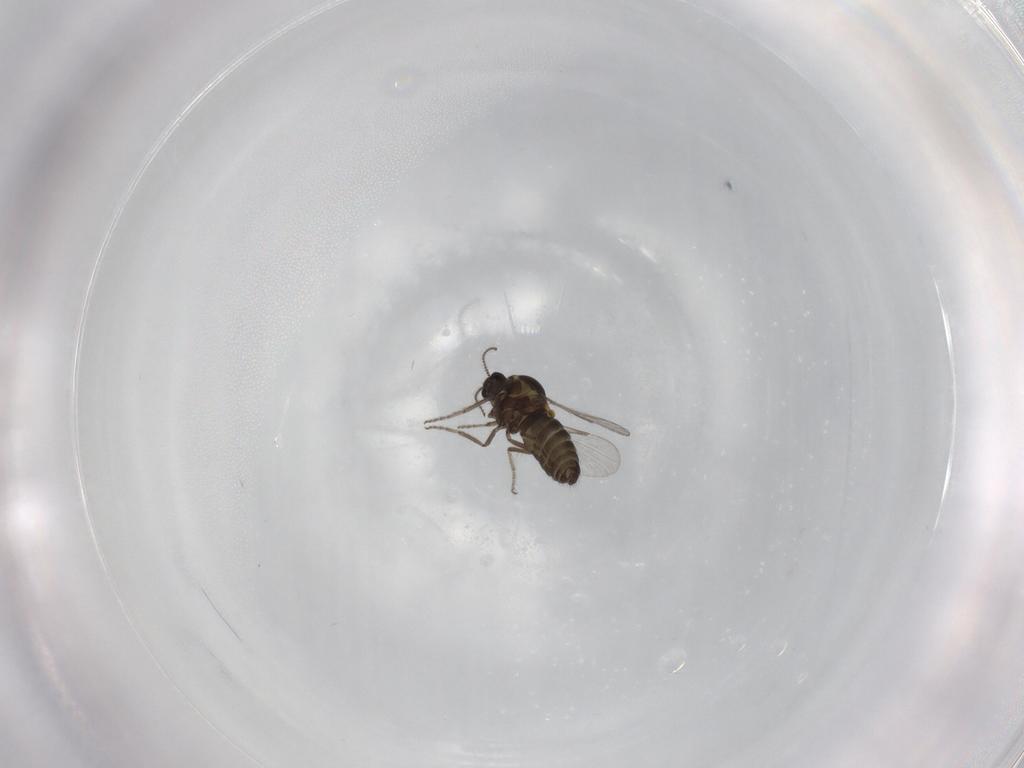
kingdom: Animalia
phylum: Arthropoda
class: Insecta
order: Diptera
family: Ceratopogonidae
